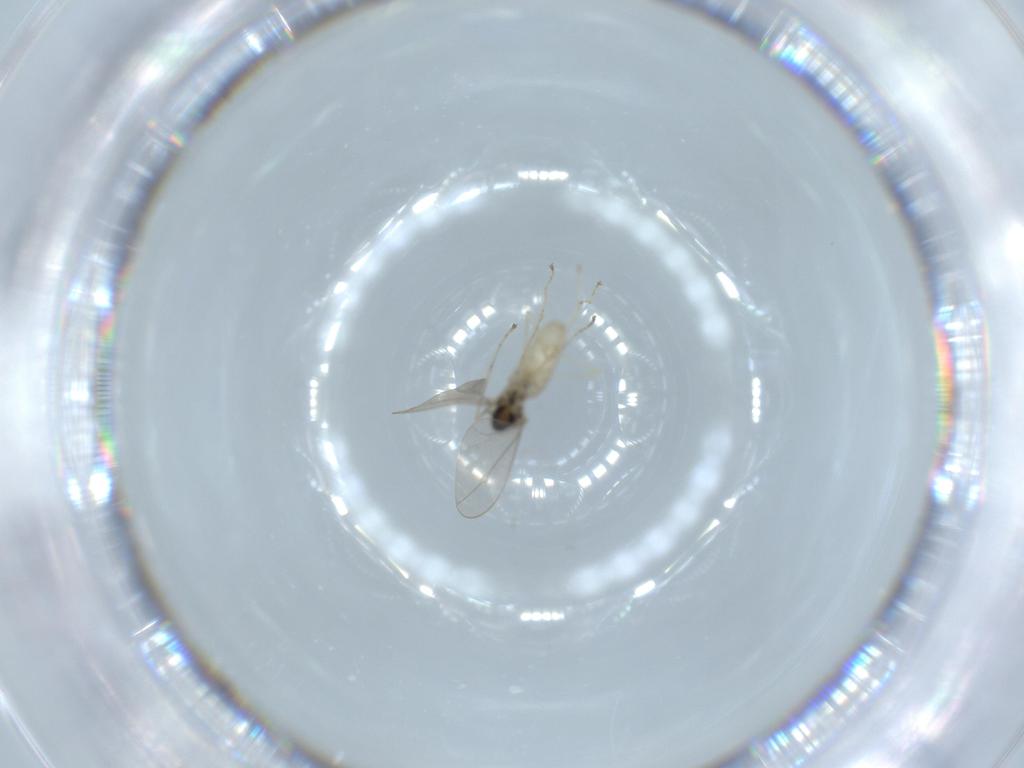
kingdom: Animalia
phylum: Arthropoda
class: Insecta
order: Diptera
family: Cecidomyiidae
